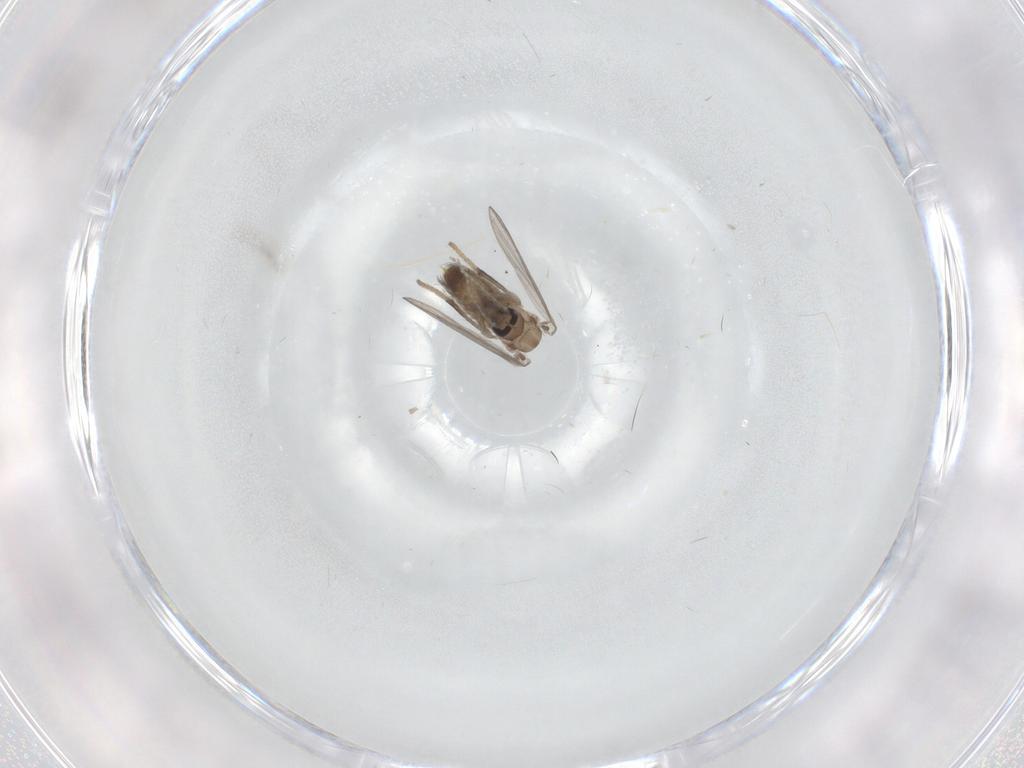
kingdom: Animalia
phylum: Arthropoda
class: Insecta
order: Diptera
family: Psychodidae
